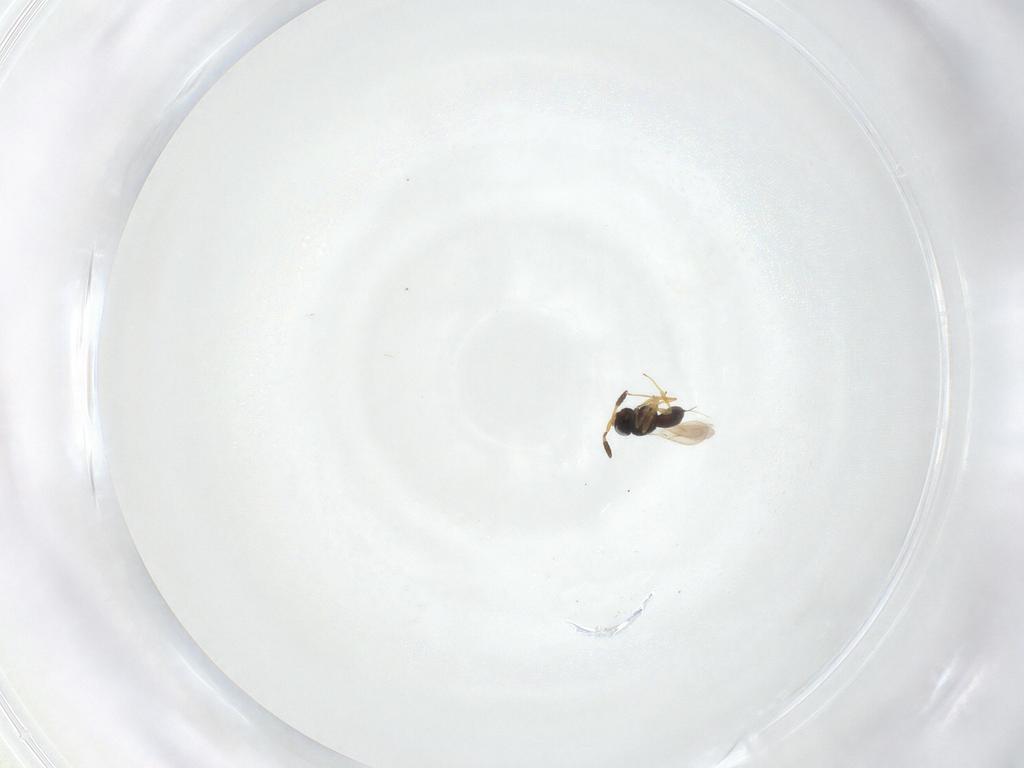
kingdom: Animalia
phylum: Arthropoda
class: Insecta
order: Hymenoptera
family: Scelionidae
